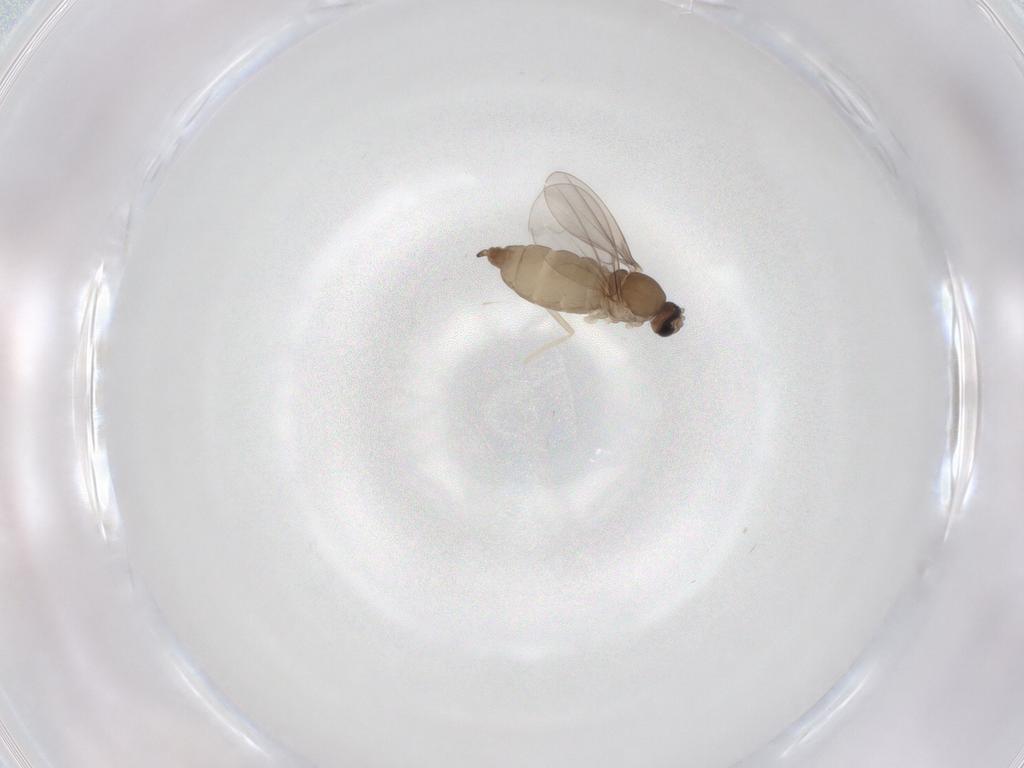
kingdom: Animalia
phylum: Arthropoda
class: Insecta
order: Diptera
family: Cecidomyiidae
